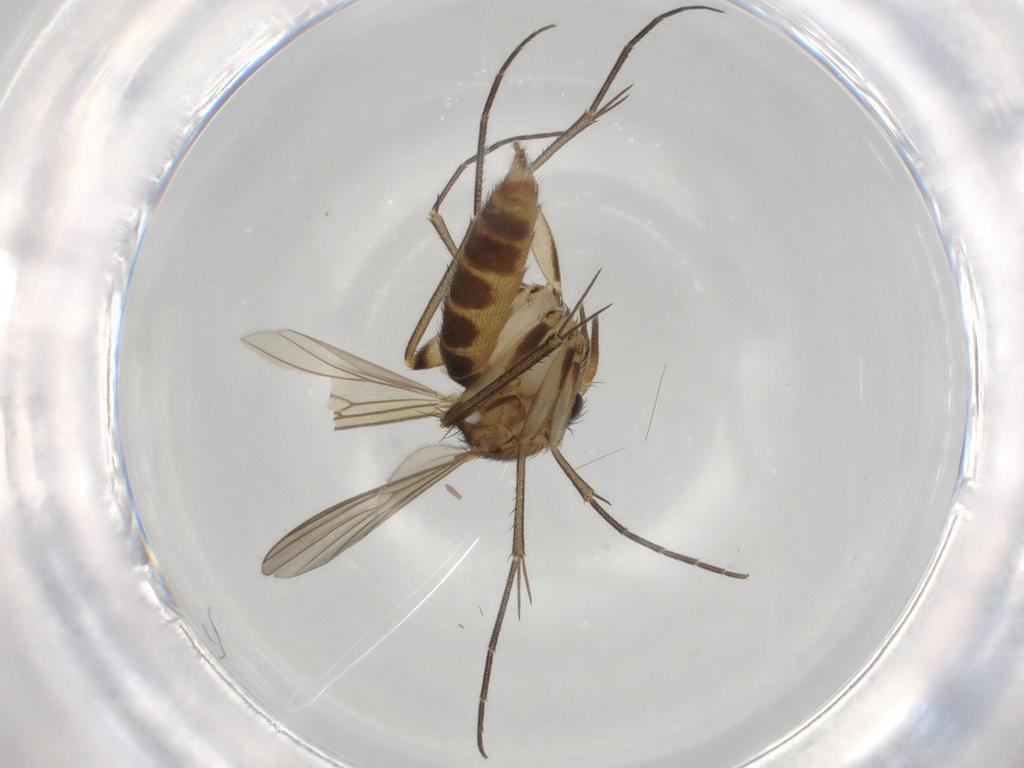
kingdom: Animalia
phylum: Arthropoda
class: Insecta
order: Diptera
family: Mycetophilidae
